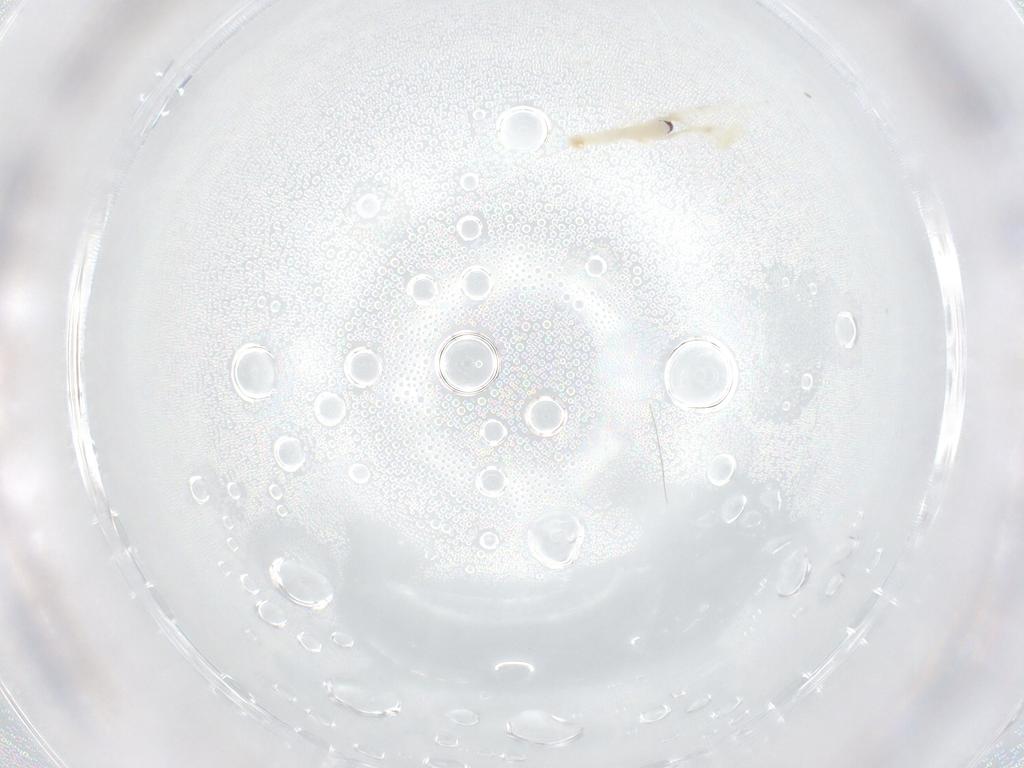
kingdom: Animalia
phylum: Arthropoda
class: Insecta
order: Diptera
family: Cecidomyiidae
